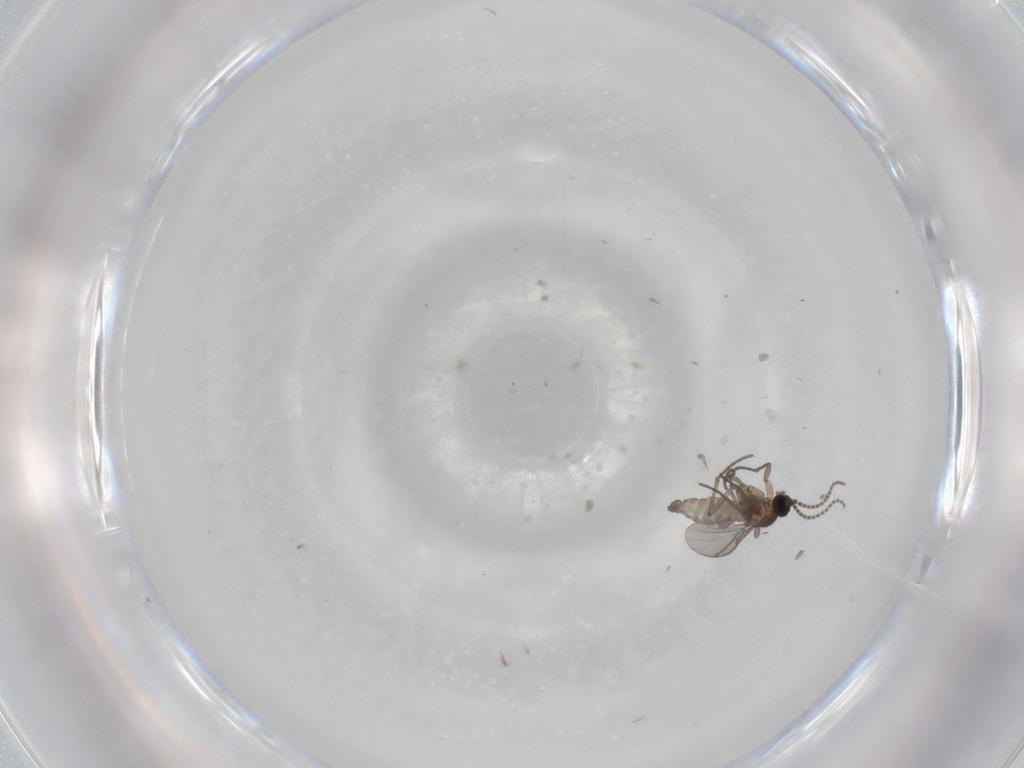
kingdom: Animalia
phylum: Arthropoda
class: Insecta
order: Diptera
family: Sciaridae
